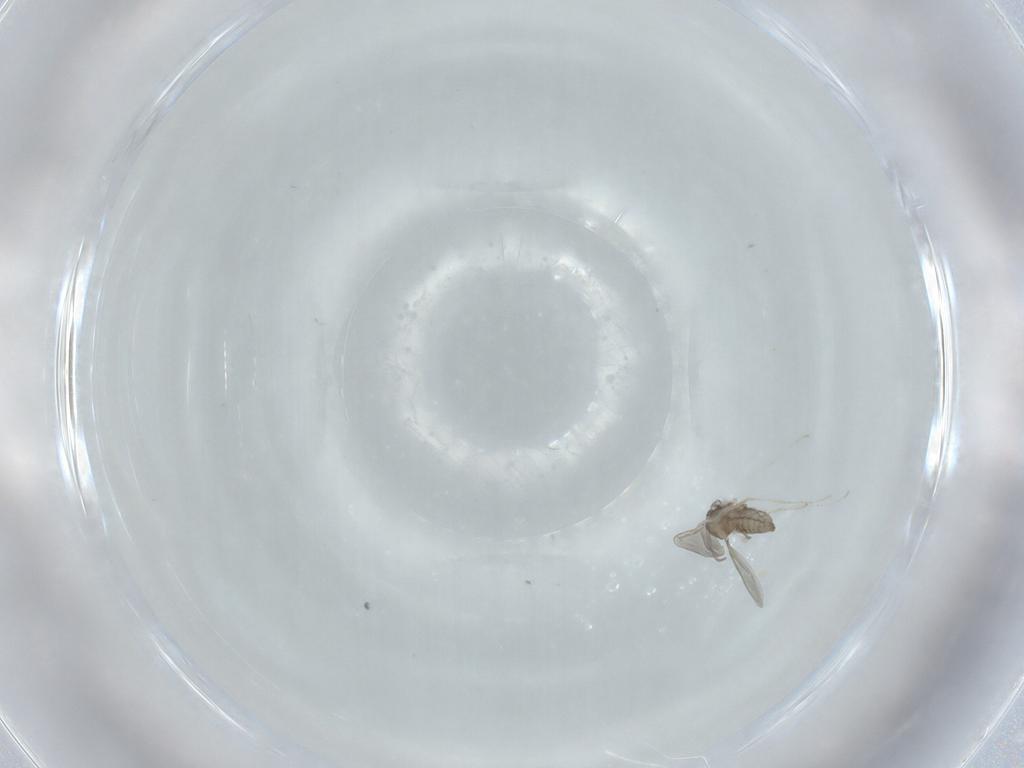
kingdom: Animalia
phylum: Arthropoda
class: Insecta
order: Diptera
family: Cecidomyiidae
